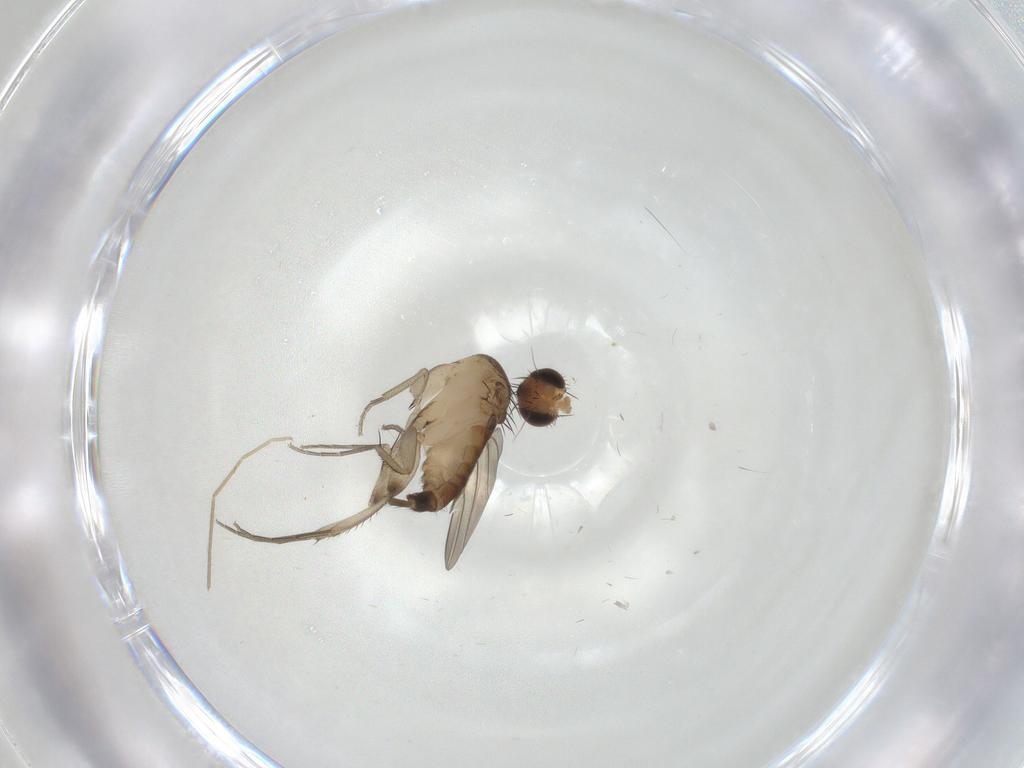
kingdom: Animalia
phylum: Arthropoda
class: Insecta
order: Diptera
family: Phoridae
